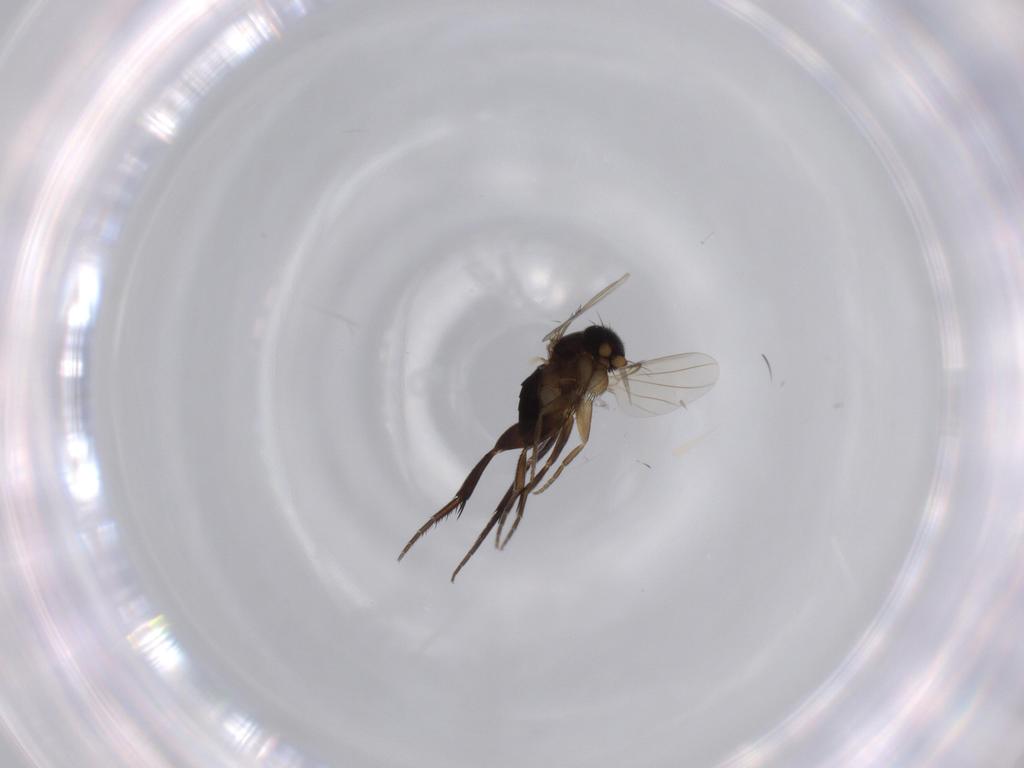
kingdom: Animalia
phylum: Arthropoda
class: Insecta
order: Diptera
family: Phoridae
